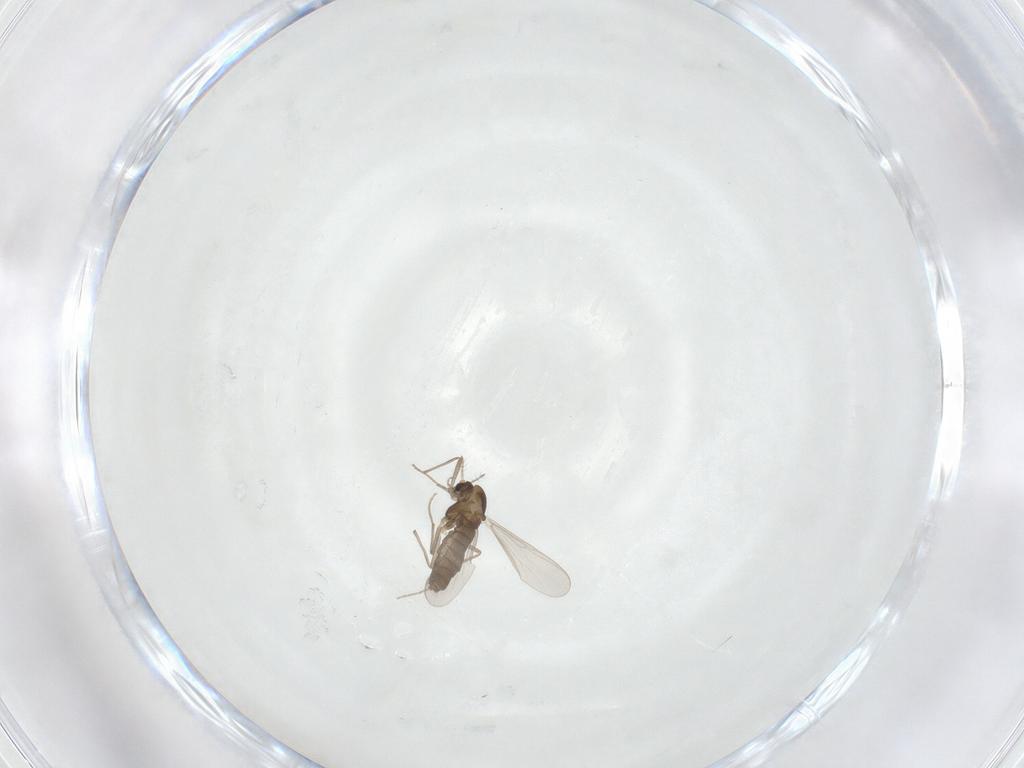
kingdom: Animalia
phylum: Arthropoda
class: Insecta
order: Diptera
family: Chironomidae
